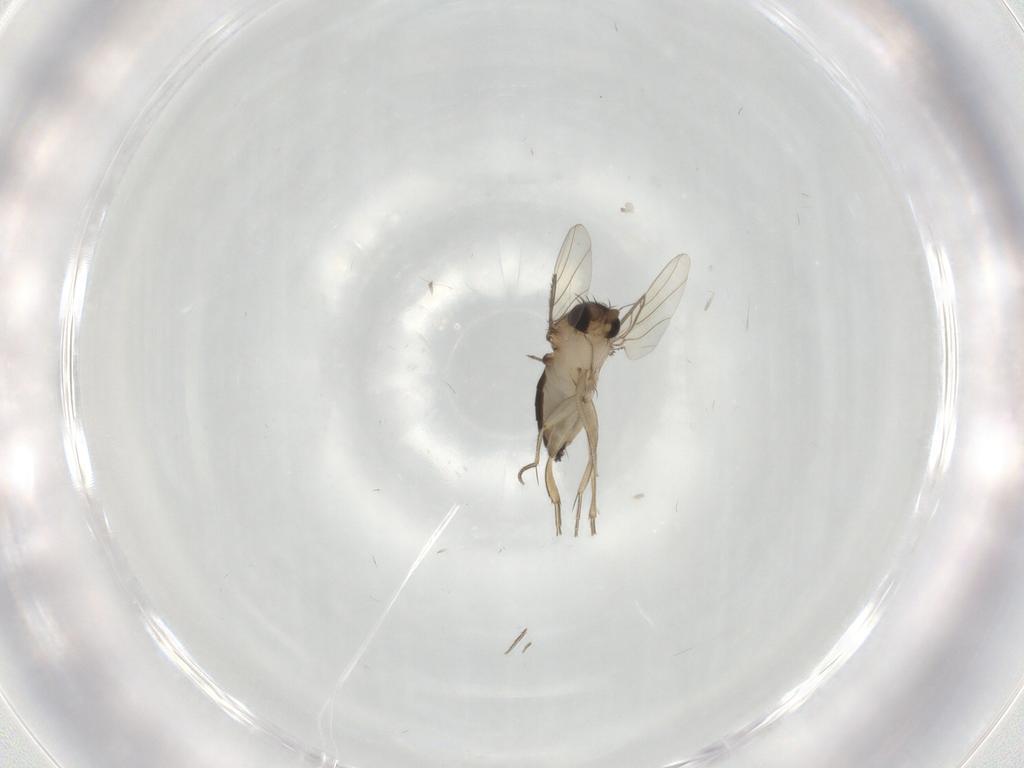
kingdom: Animalia
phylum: Arthropoda
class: Insecta
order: Diptera
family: Phoridae
